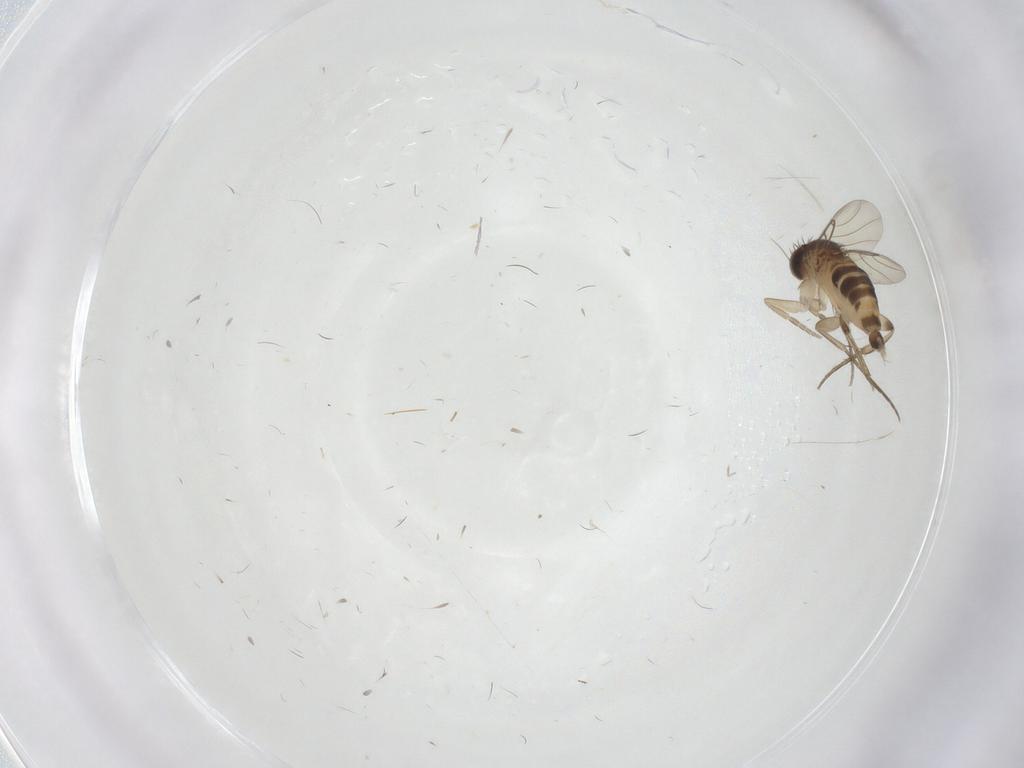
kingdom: Animalia
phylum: Arthropoda
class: Insecta
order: Diptera
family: Phoridae
